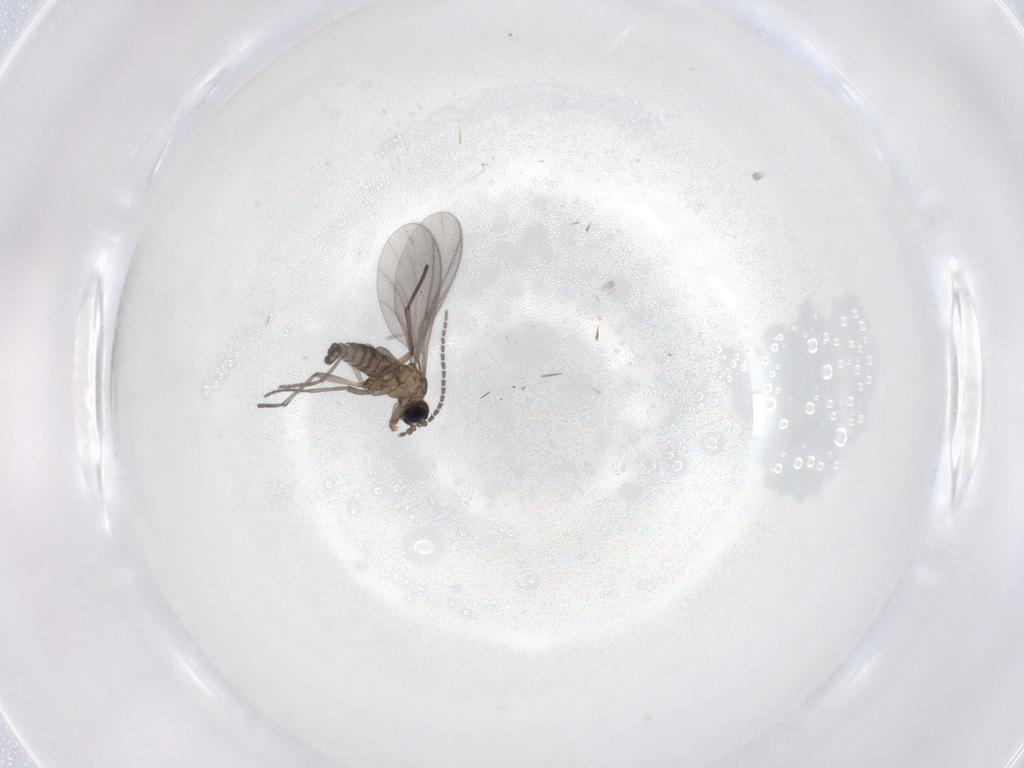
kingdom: Animalia
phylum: Arthropoda
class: Insecta
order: Diptera
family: Sciaridae
